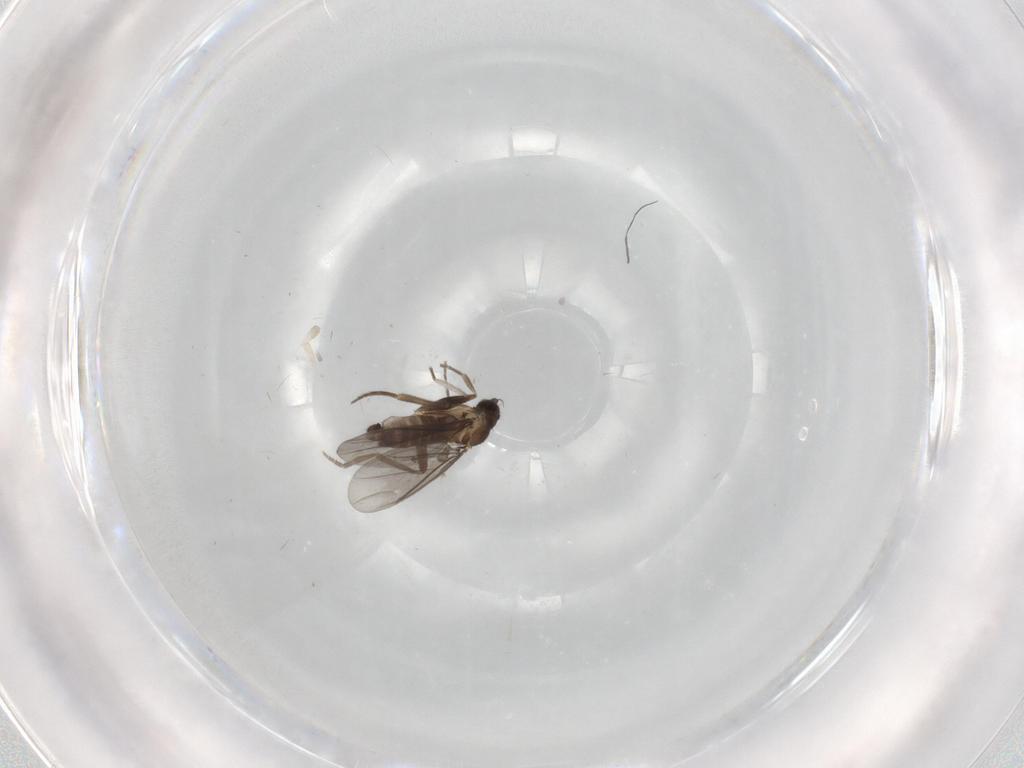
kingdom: Animalia
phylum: Arthropoda
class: Insecta
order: Diptera
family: Phoridae
